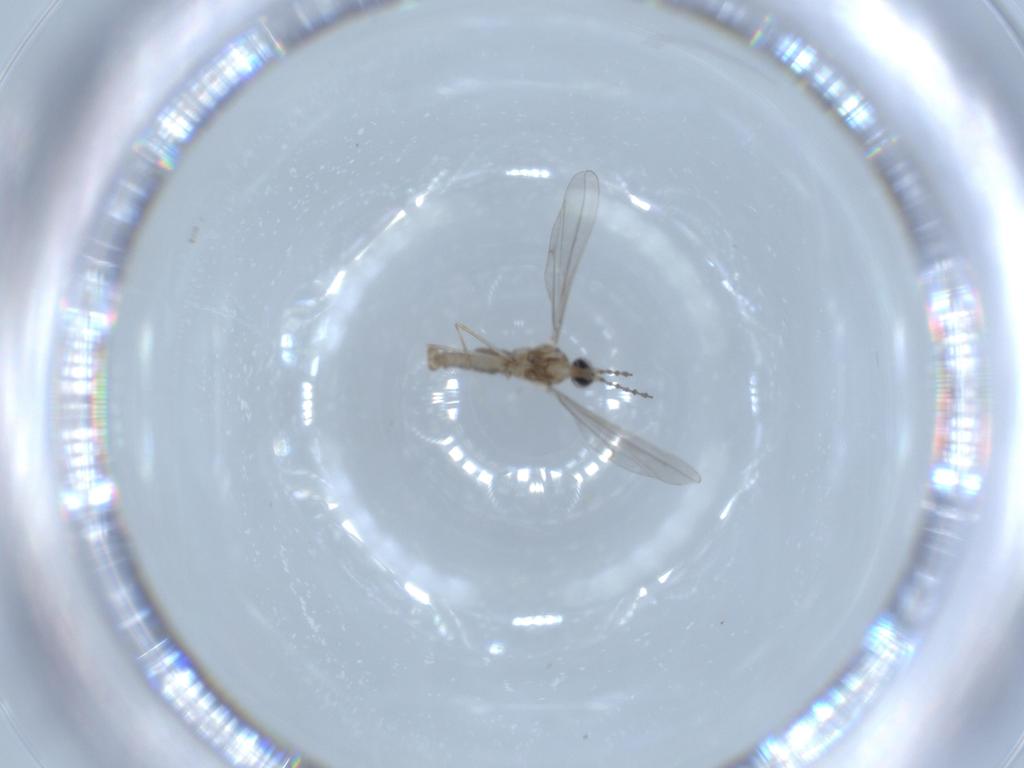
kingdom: Animalia
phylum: Arthropoda
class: Insecta
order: Diptera
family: Cecidomyiidae
